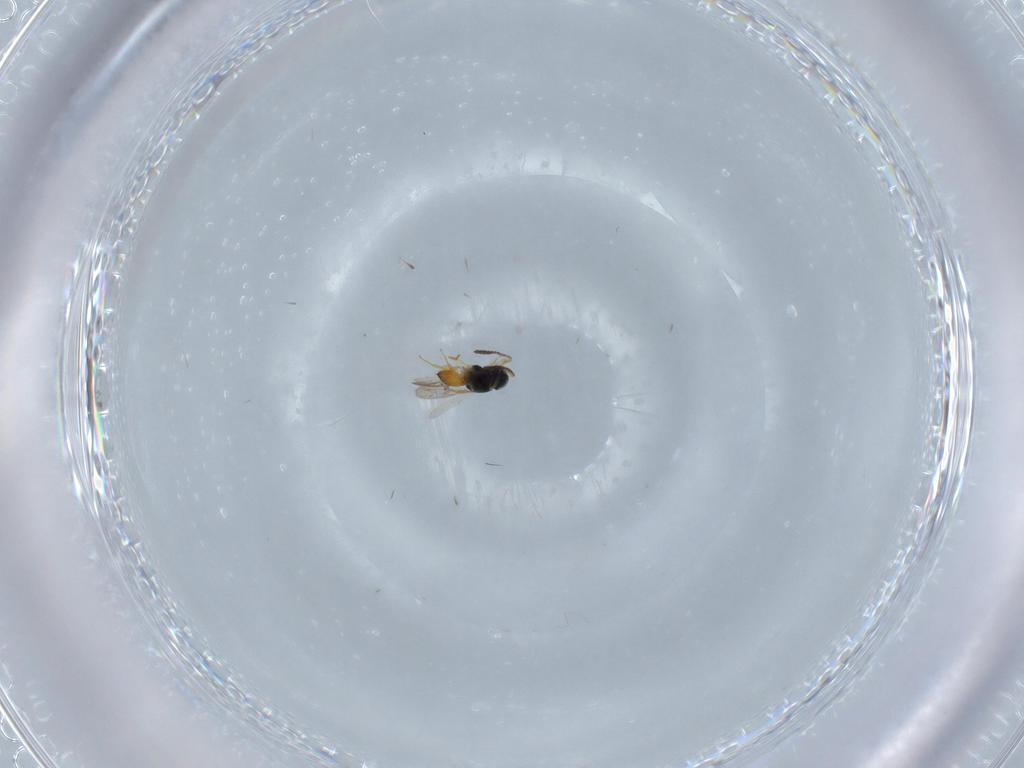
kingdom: Animalia
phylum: Arthropoda
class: Insecta
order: Hymenoptera
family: Scelionidae
